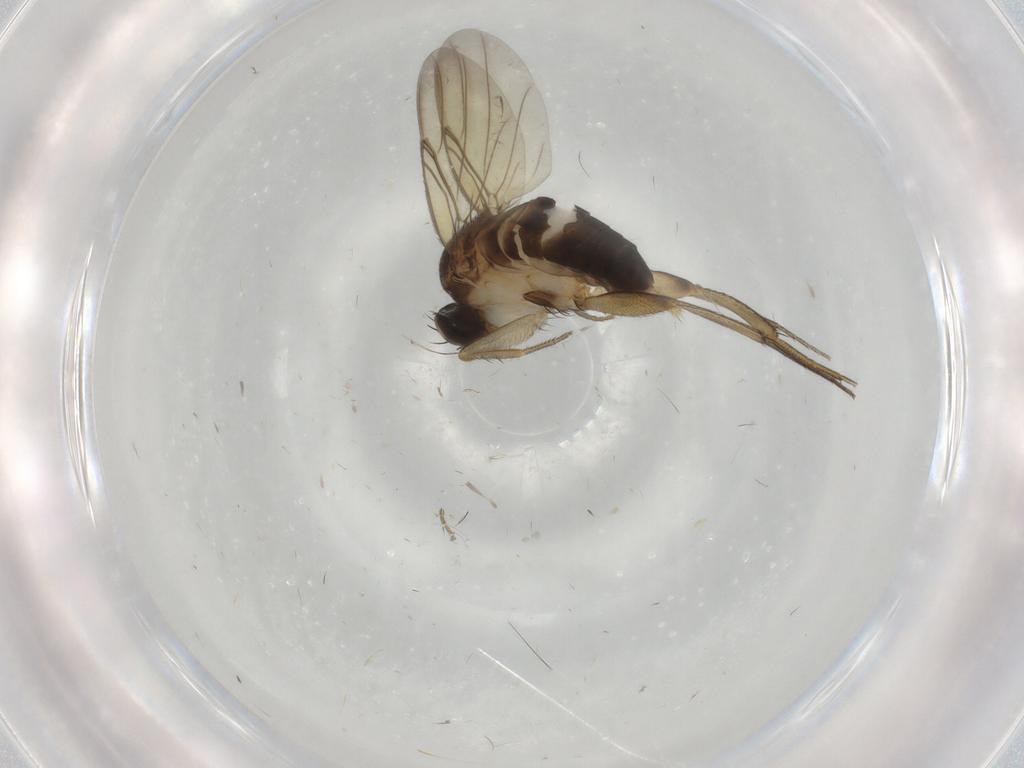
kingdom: Animalia
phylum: Arthropoda
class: Insecta
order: Diptera
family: Phoridae
